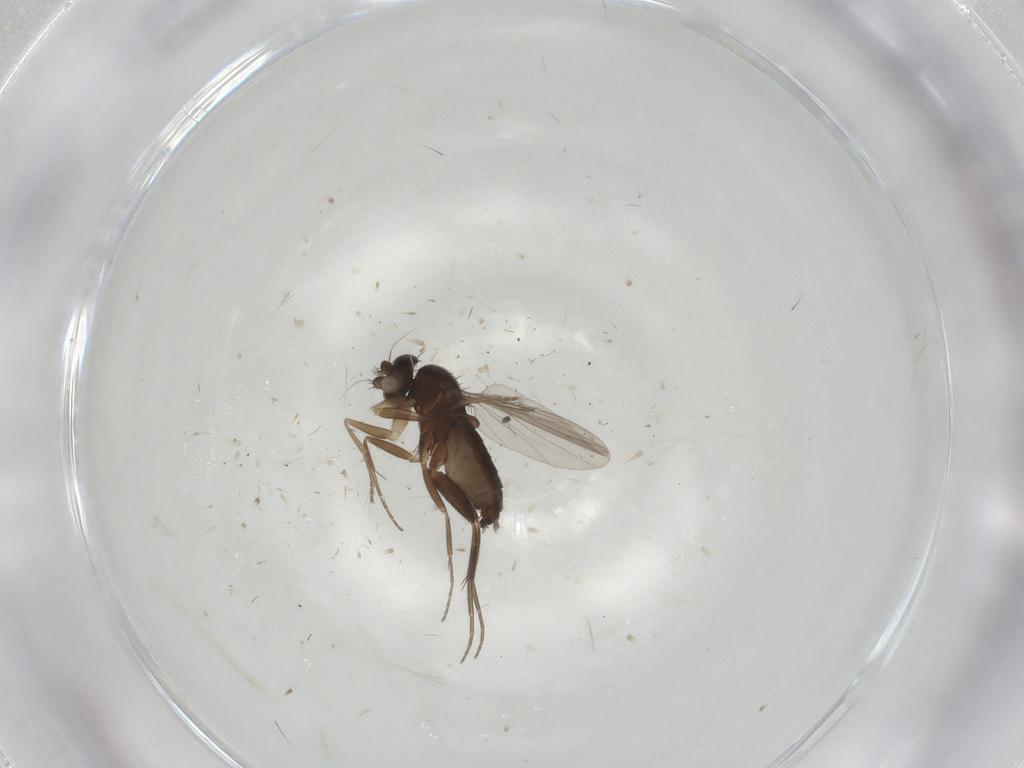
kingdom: Animalia
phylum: Arthropoda
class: Insecta
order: Diptera
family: Phoridae
